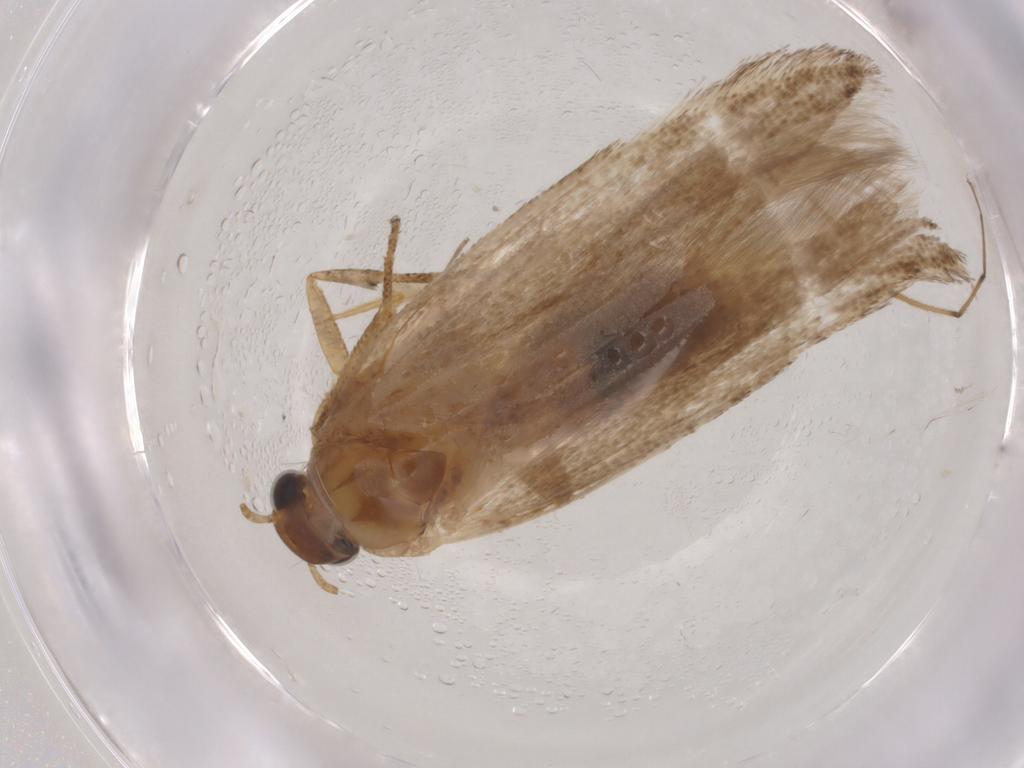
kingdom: Animalia
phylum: Arthropoda
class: Insecta
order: Lepidoptera
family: Gelechiidae
